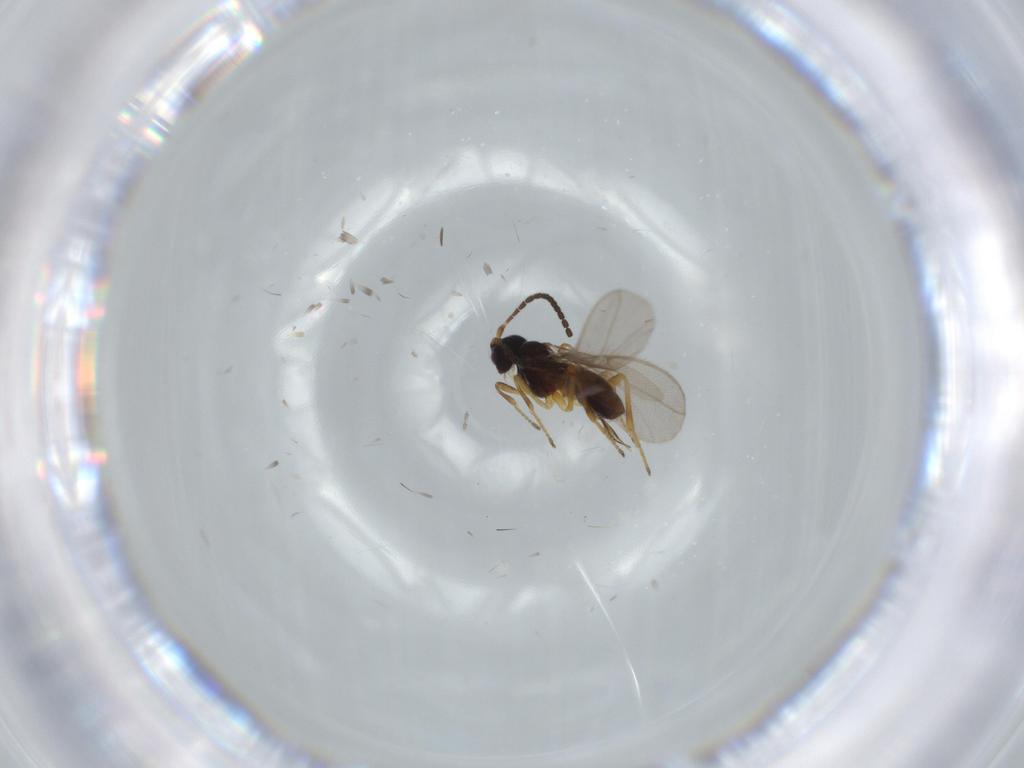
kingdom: Animalia
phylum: Arthropoda
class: Insecta
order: Hymenoptera
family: Braconidae
